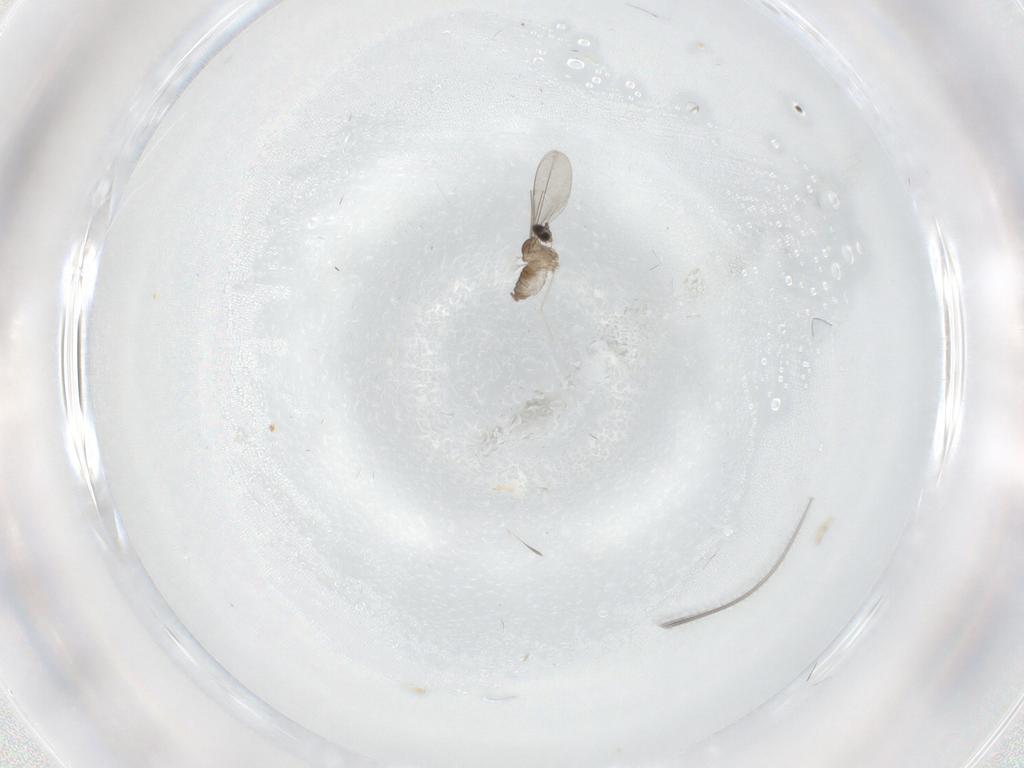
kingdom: Animalia
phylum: Arthropoda
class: Insecta
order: Diptera
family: Cecidomyiidae
